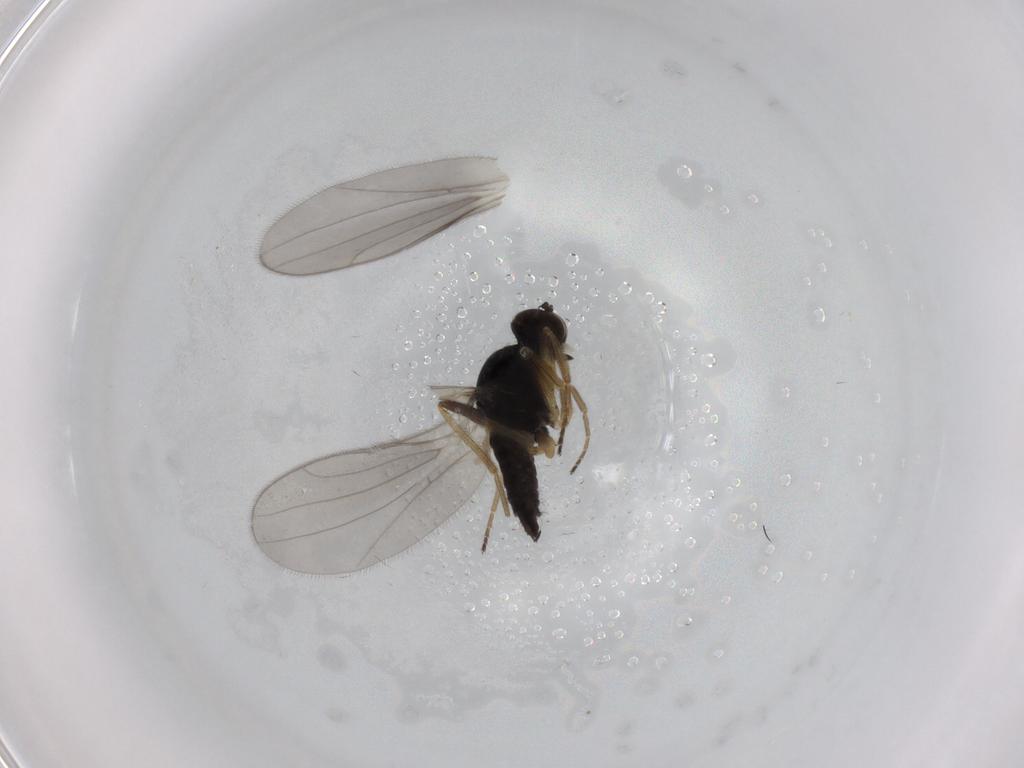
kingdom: Animalia
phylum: Arthropoda
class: Insecta
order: Diptera
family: Hybotidae
